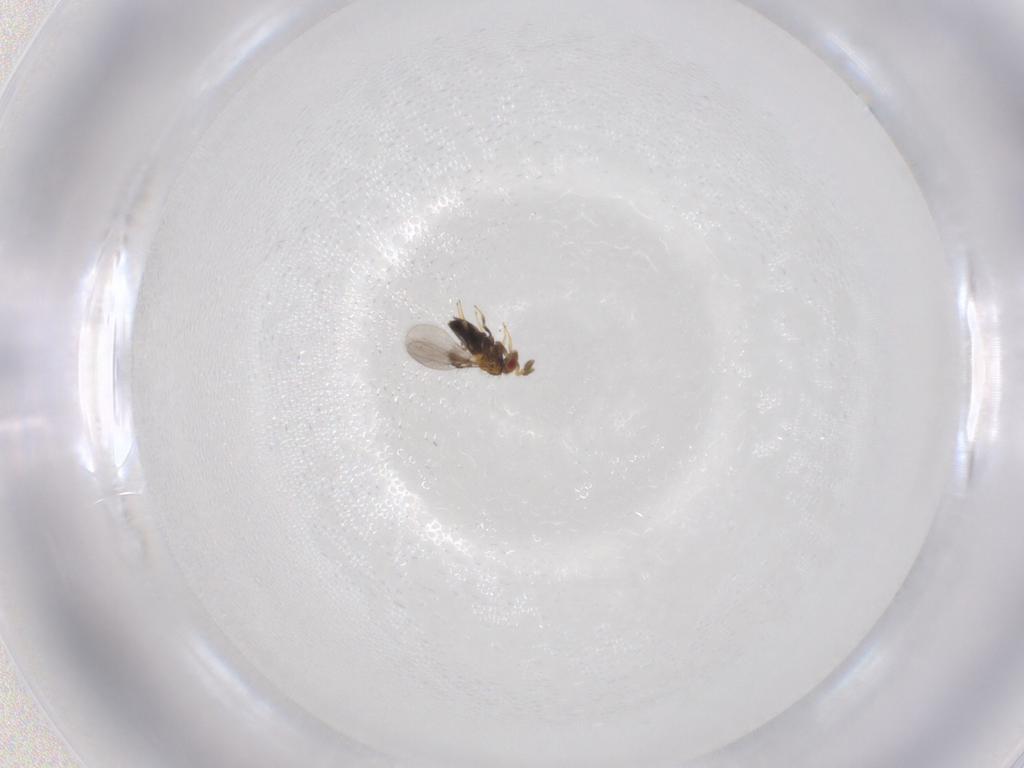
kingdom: Animalia
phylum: Arthropoda
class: Insecta
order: Hymenoptera
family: Trichogrammatidae
